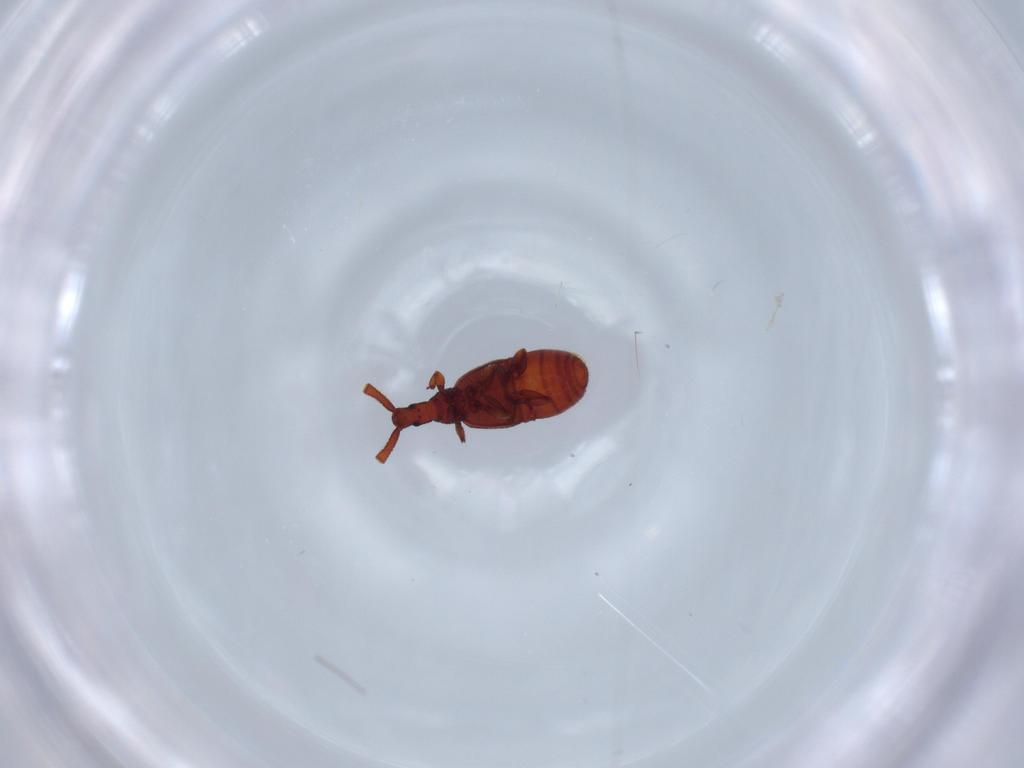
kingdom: Animalia
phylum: Arthropoda
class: Insecta
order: Coleoptera
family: Staphylinidae
